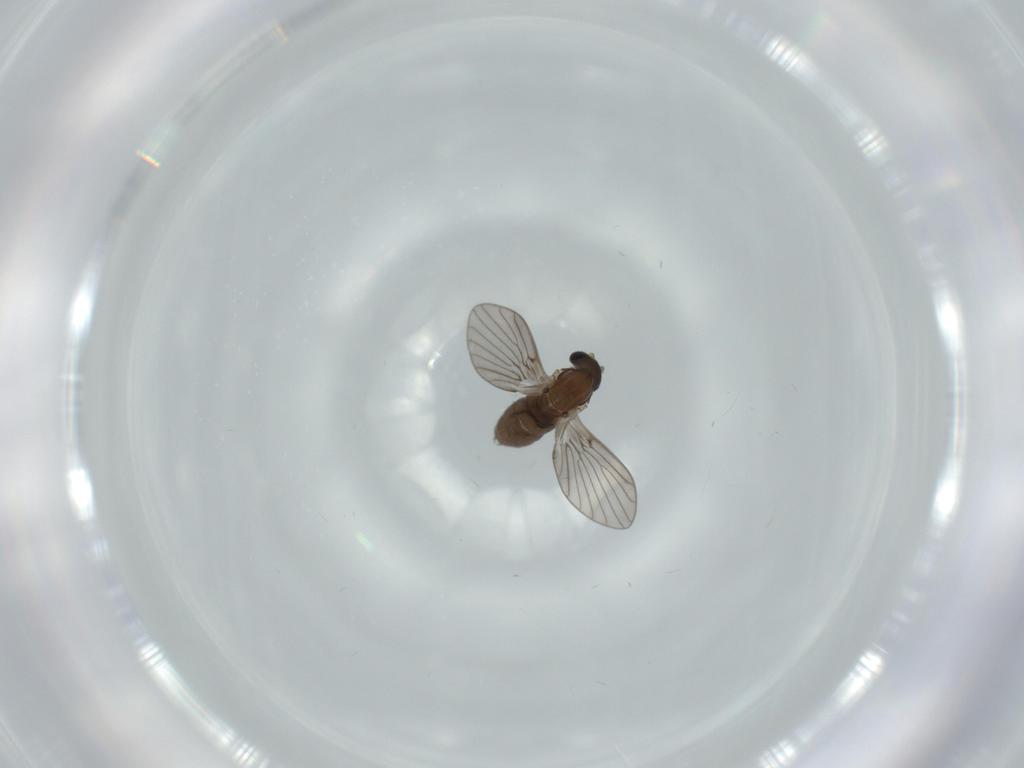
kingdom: Animalia
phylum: Arthropoda
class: Insecta
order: Diptera
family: Psychodidae
